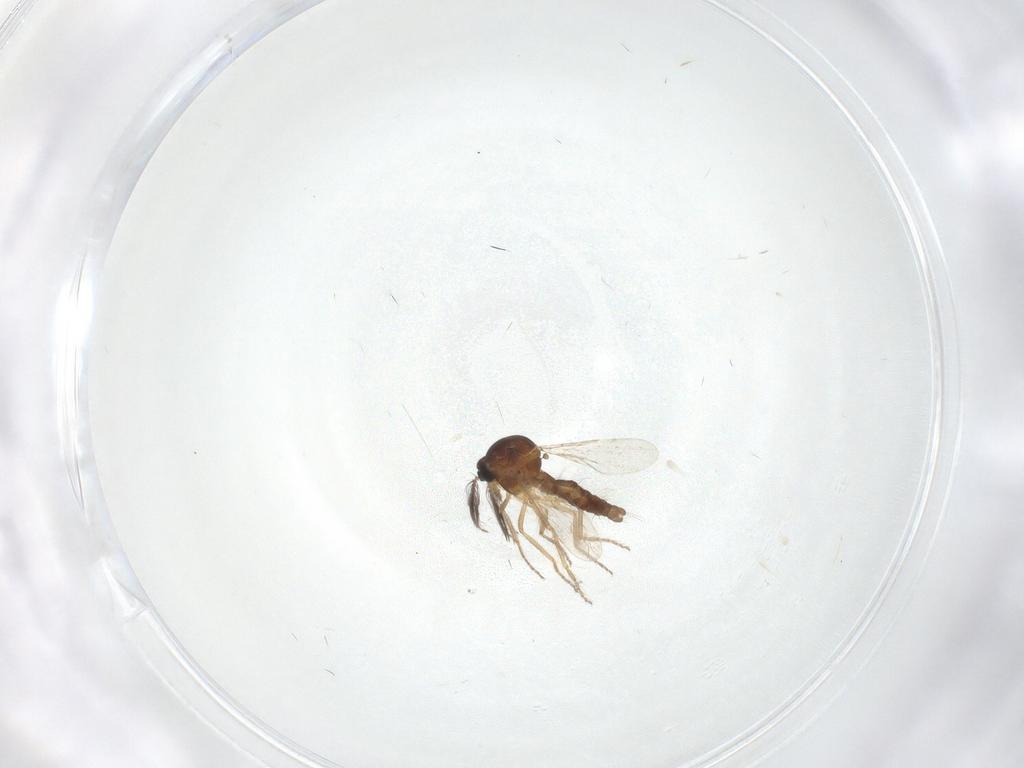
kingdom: Animalia
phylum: Arthropoda
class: Insecta
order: Diptera
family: Ceratopogonidae
